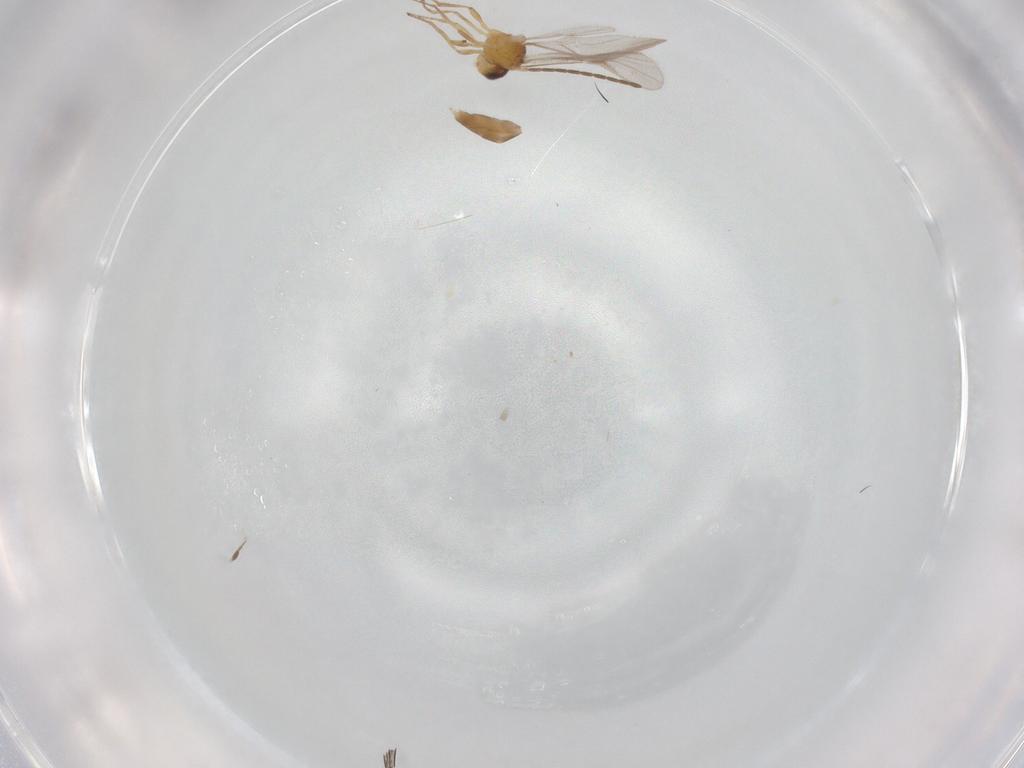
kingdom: Animalia
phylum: Arthropoda
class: Insecta
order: Hymenoptera
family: Braconidae
